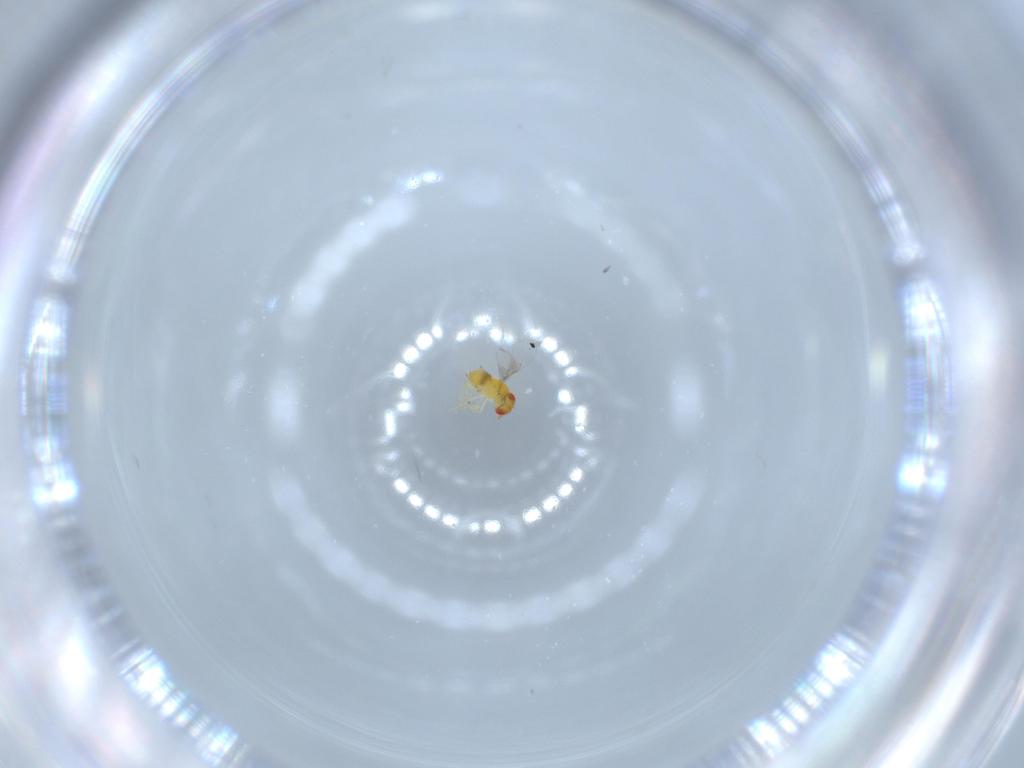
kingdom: Animalia
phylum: Arthropoda
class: Insecta
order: Hymenoptera
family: Trichogrammatidae
